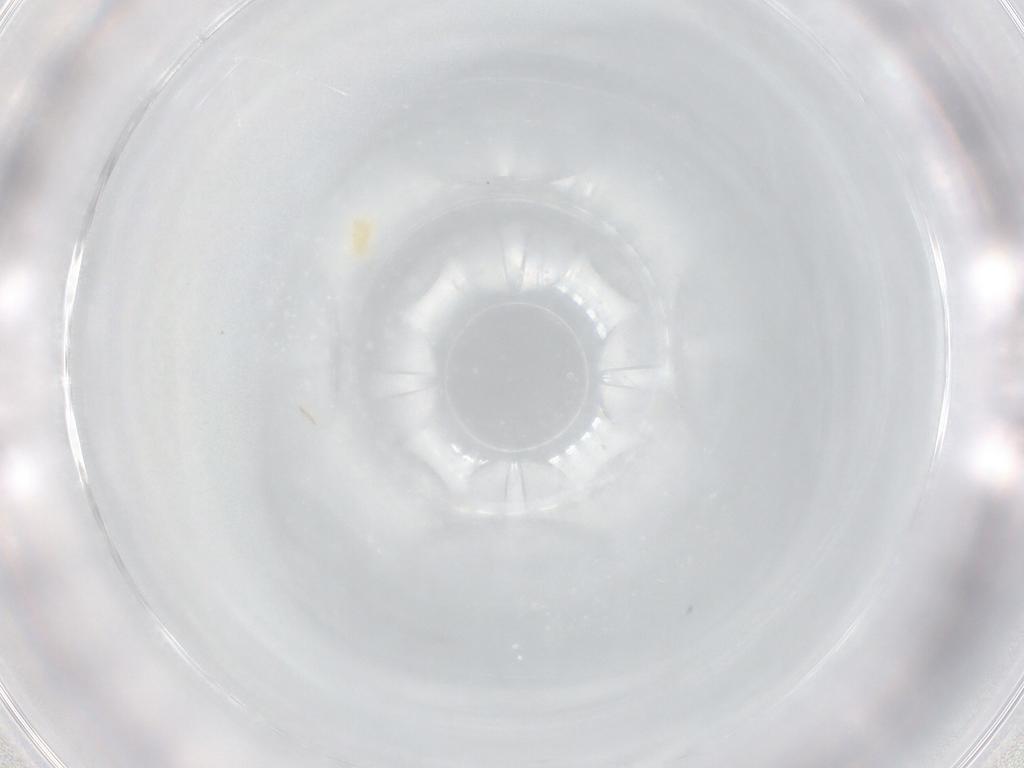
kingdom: Animalia
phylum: Arthropoda
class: Arachnida
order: Trombidiformes
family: Eupodidae
